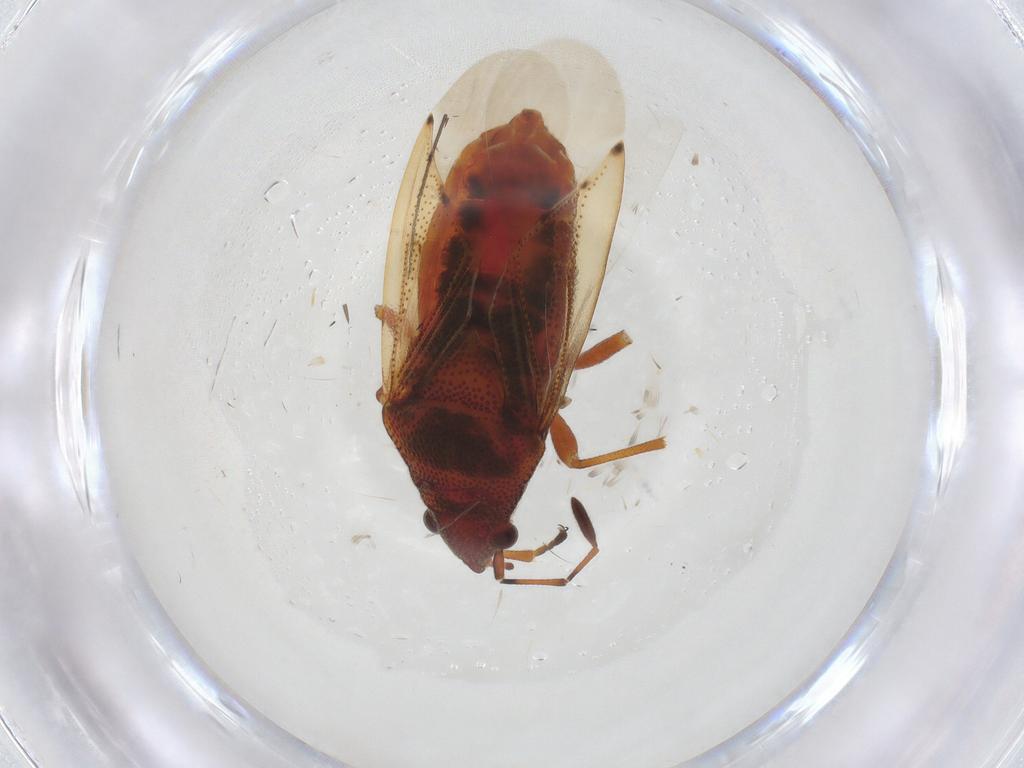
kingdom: Animalia
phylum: Arthropoda
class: Insecta
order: Hemiptera
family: Lygaeidae
